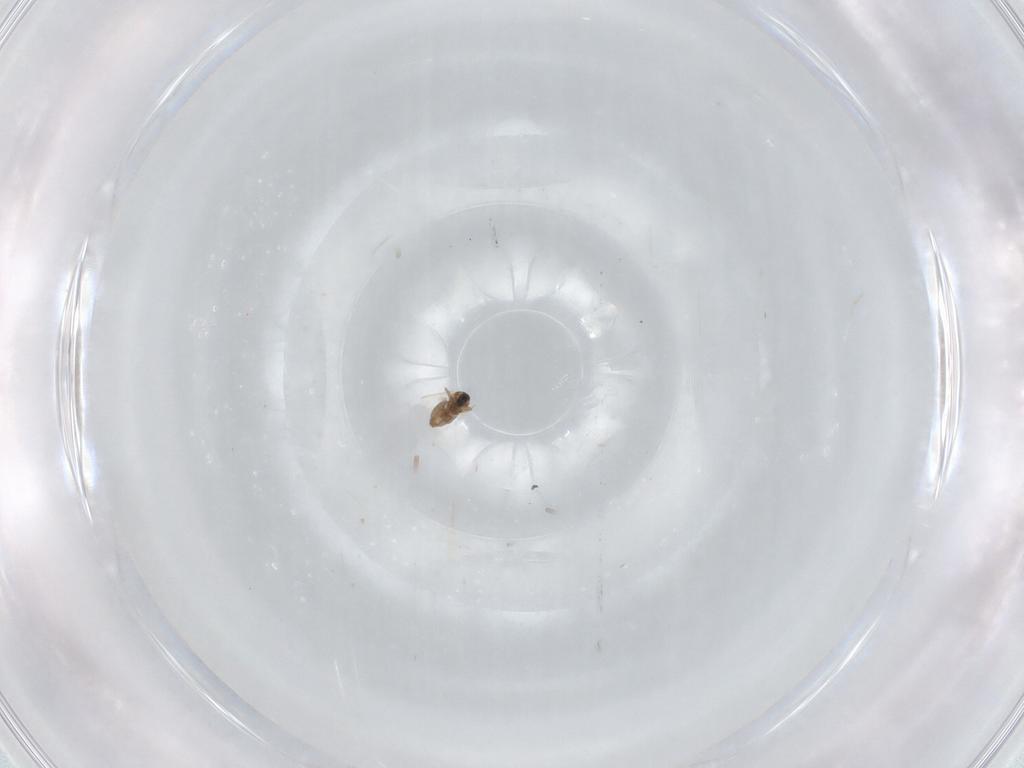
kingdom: Animalia
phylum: Arthropoda
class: Insecta
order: Diptera
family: Cecidomyiidae
